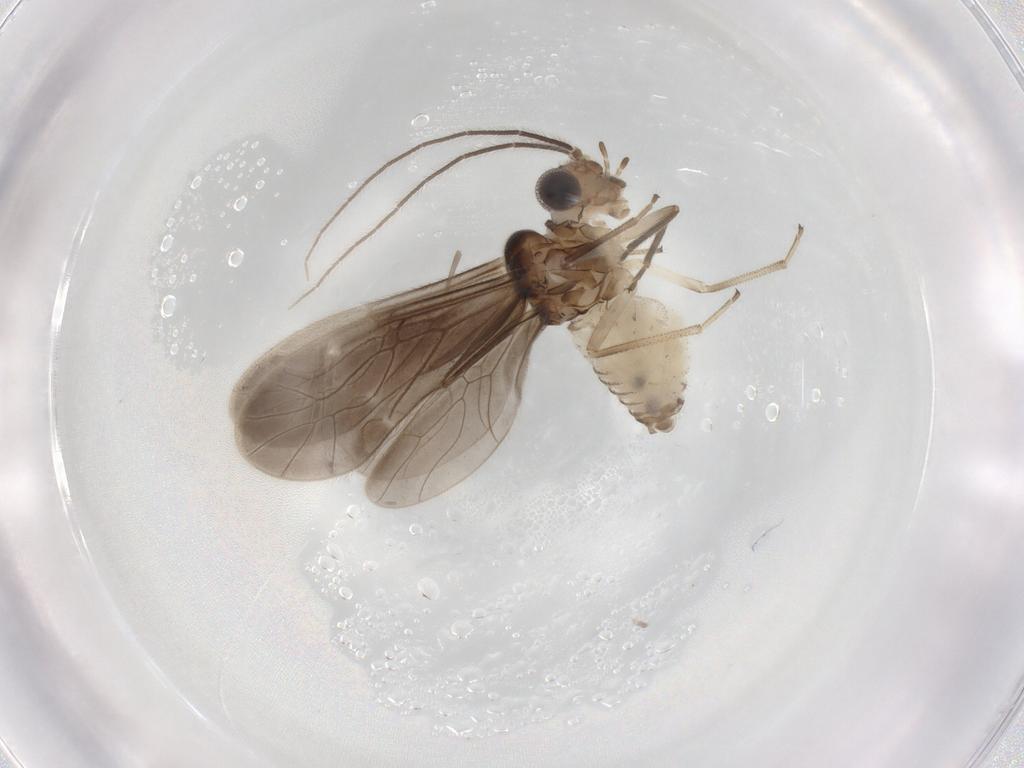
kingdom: Animalia
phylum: Arthropoda
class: Insecta
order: Psocodea
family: Caeciliusidae
